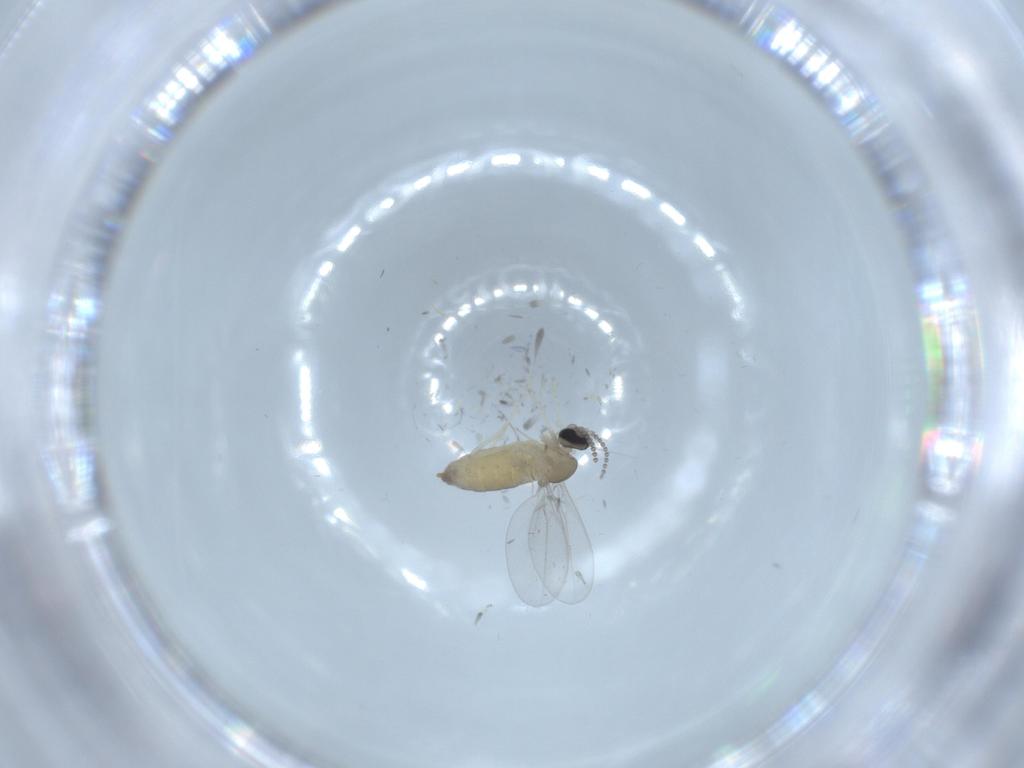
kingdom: Animalia
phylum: Arthropoda
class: Insecta
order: Diptera
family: Cecidomyiidae
